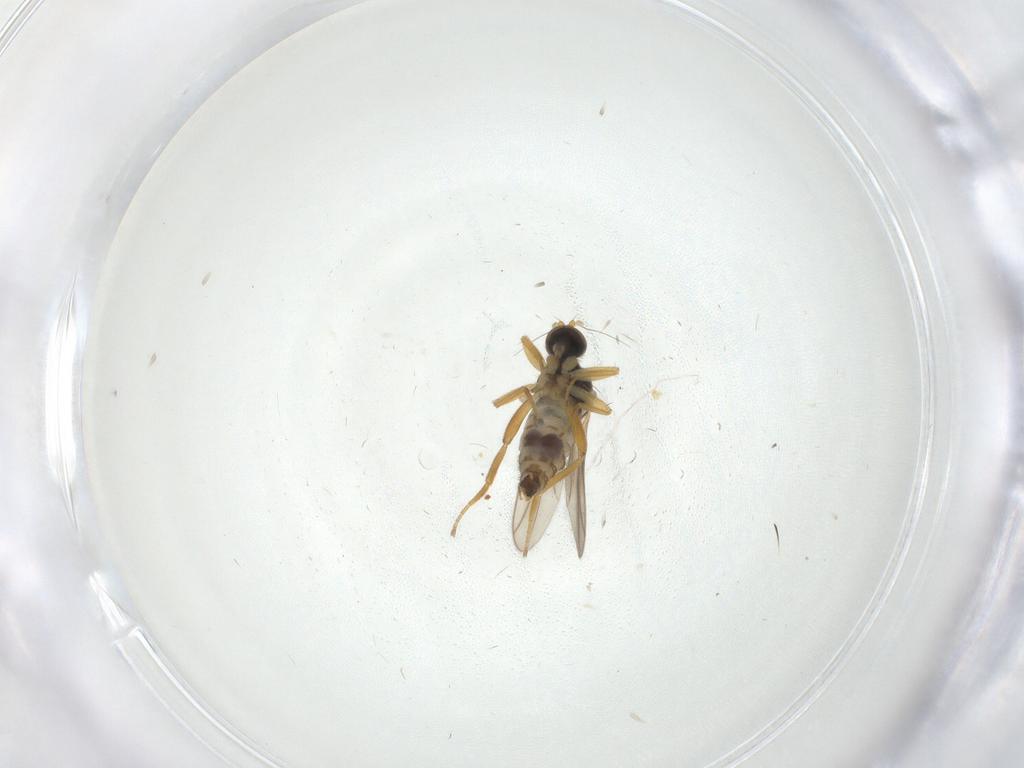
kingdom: Animalia
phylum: Arthropoda
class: Insecta
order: Diptera
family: Hybotidae
